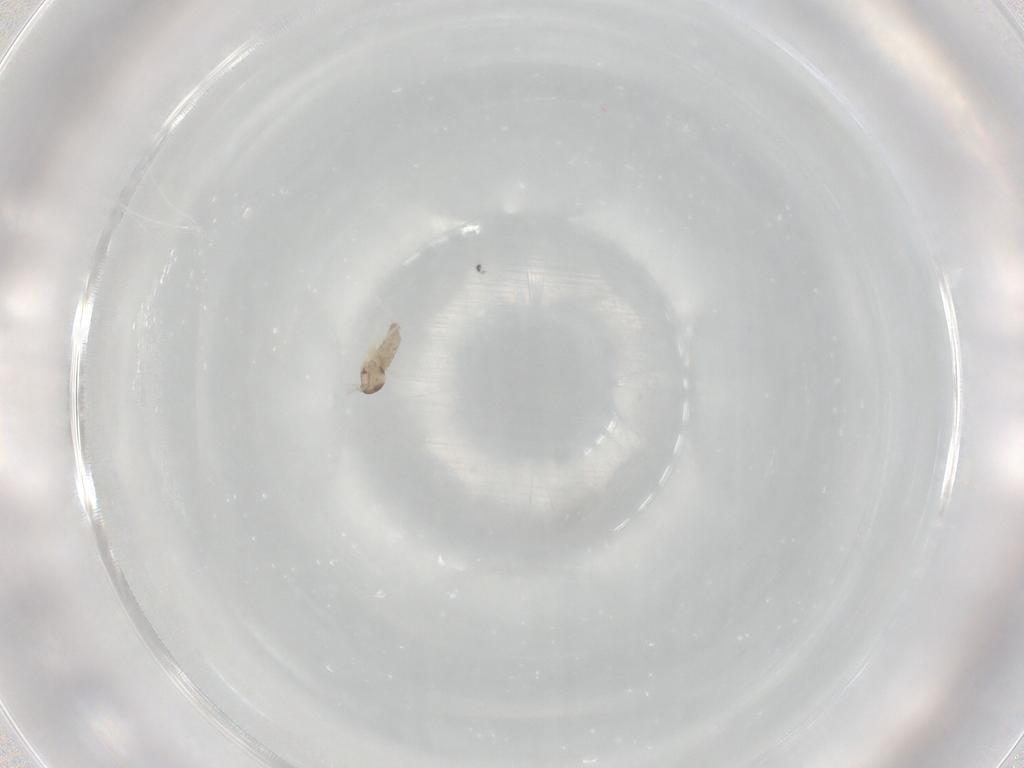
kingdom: Animalia
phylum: Arthropoda
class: Insecta
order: Diptera
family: Cecidomyiidae
